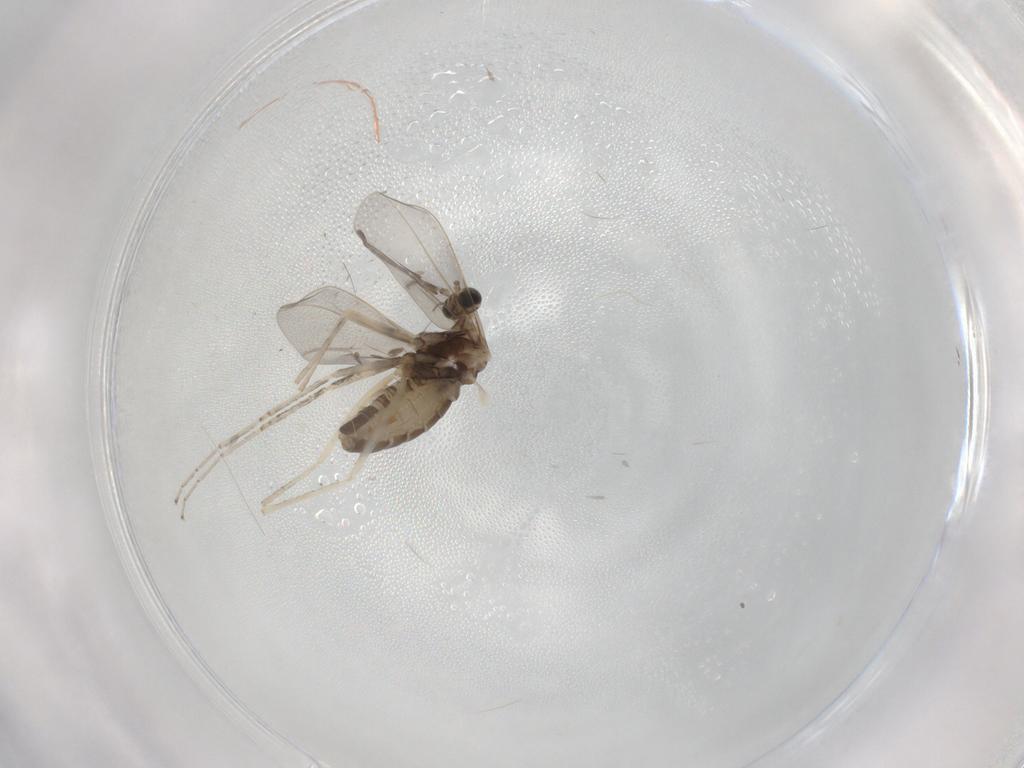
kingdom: Animalia
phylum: Arthropoda
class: Insecta
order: Diptera
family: Cecidomyiidae
